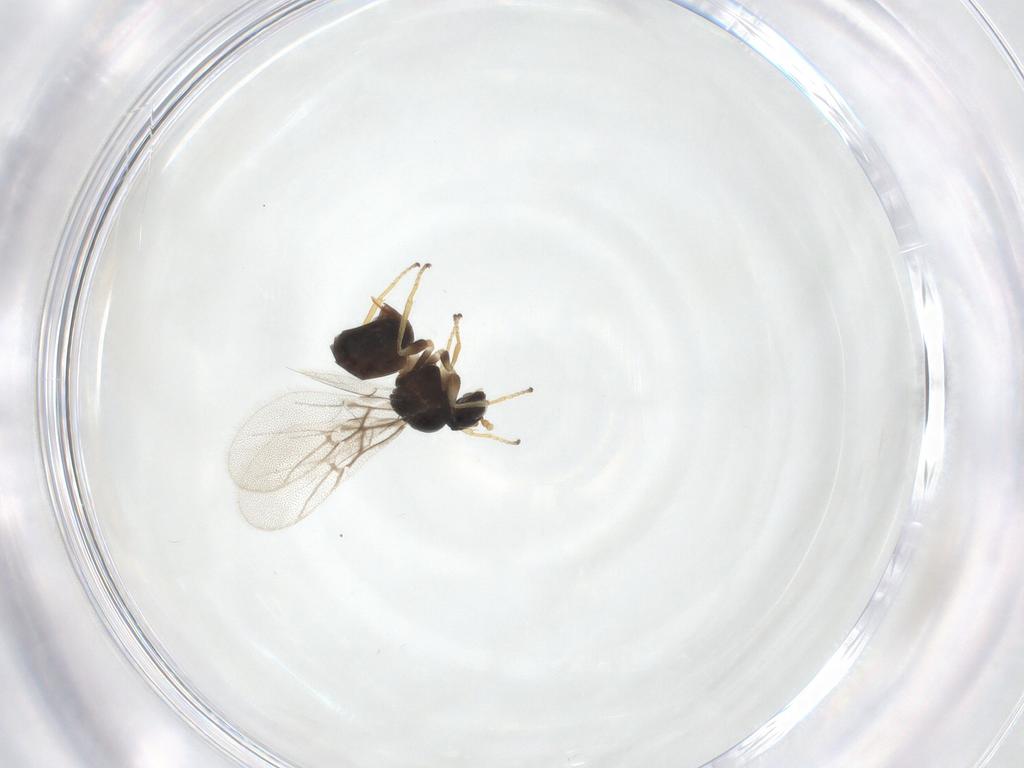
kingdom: Animalia
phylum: Arthropoda
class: Insecta
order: Hymenoptera
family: Cynipidae
